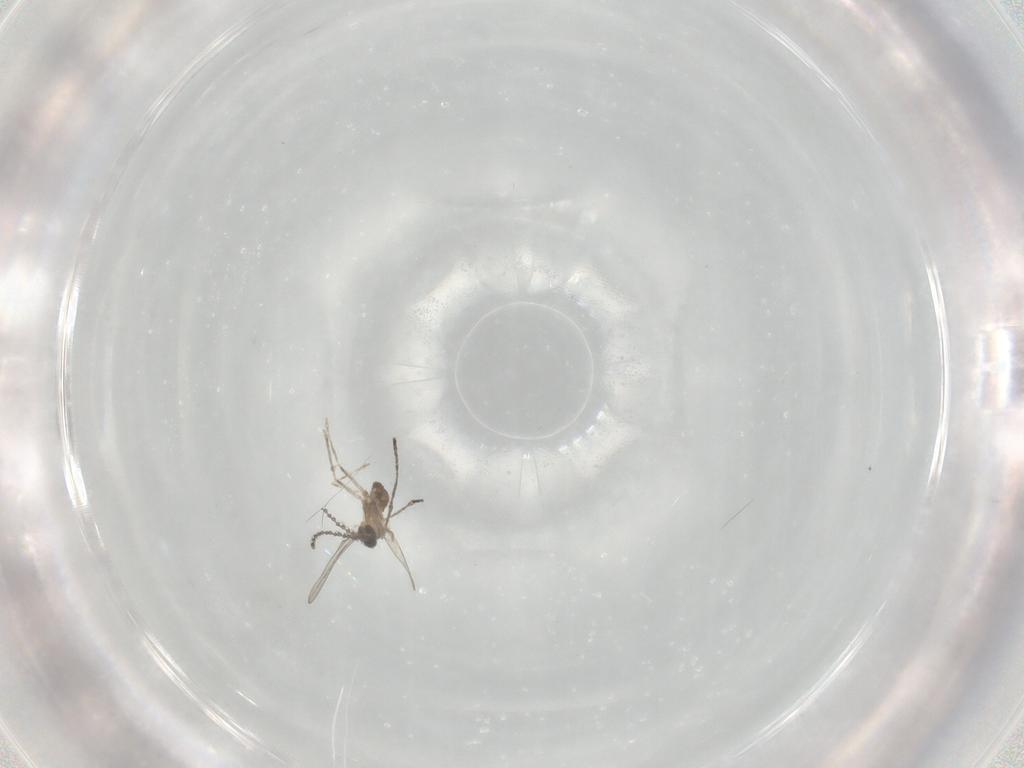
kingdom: Animalia
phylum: Arthropoda
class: Insecta
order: Diptera
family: Cecidomyiidae
